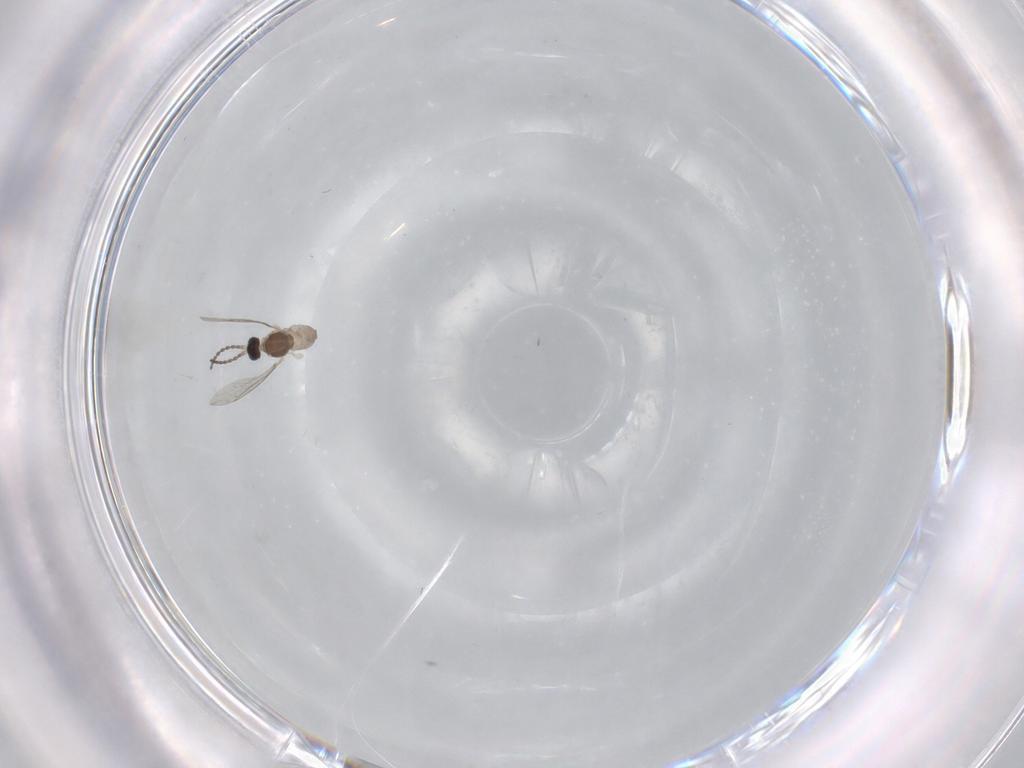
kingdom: Animalia
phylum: Arthropoda
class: Insecta
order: Diptera
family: Cecidomyiidae
